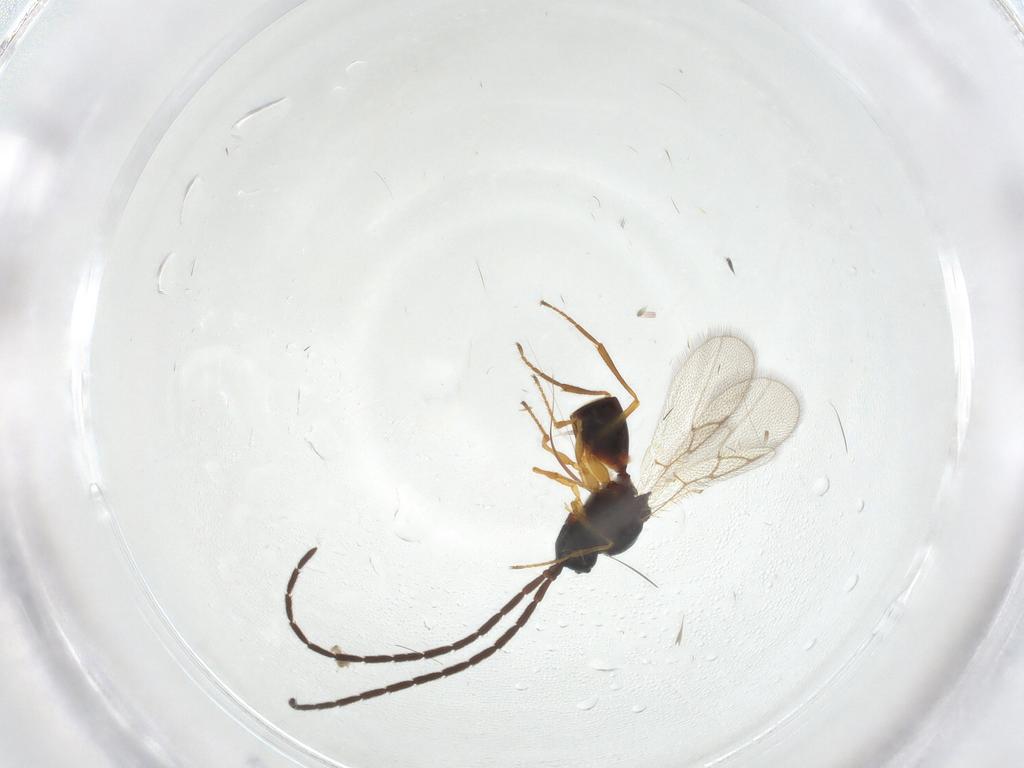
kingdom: Animalia
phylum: Arthropoda
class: Insecta
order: Hymenoptera
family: Figitidae
